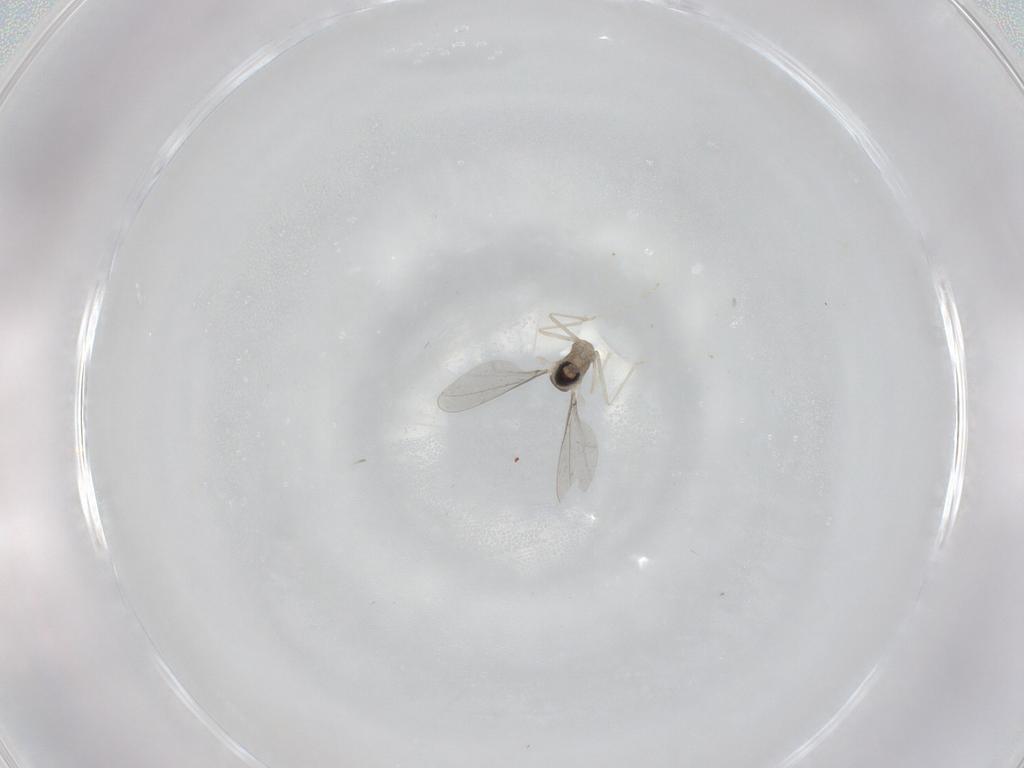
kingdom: Animalia
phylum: Arthropoda
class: Insecta
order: Diptera
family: Cecidomyiidae
